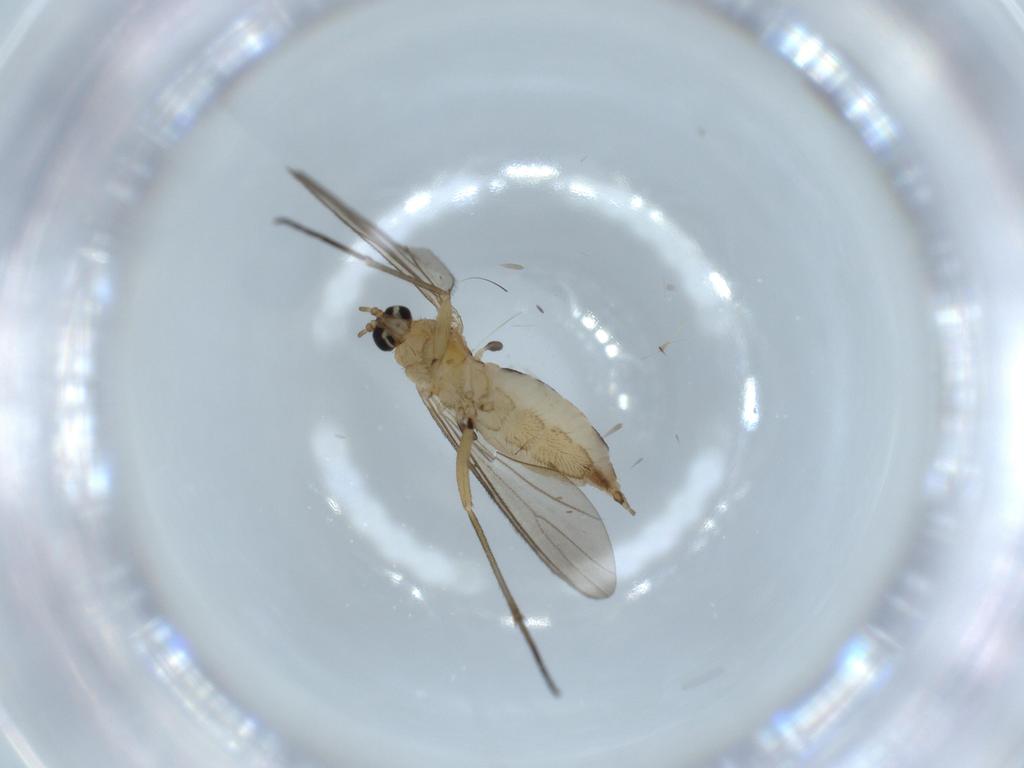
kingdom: Animalia
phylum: Arthropoda
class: Insecta
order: Diptera
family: Sciaridae
